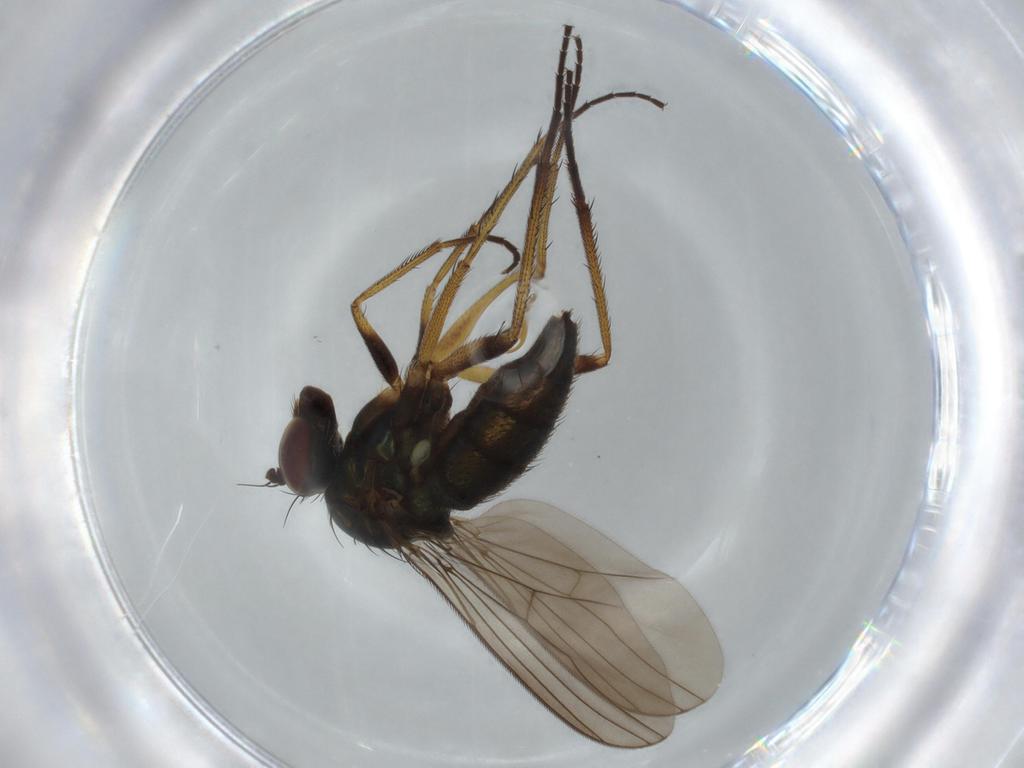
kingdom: Animalia
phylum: Arthropoda
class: Insecta
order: Diptera
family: Dolichopodidae
